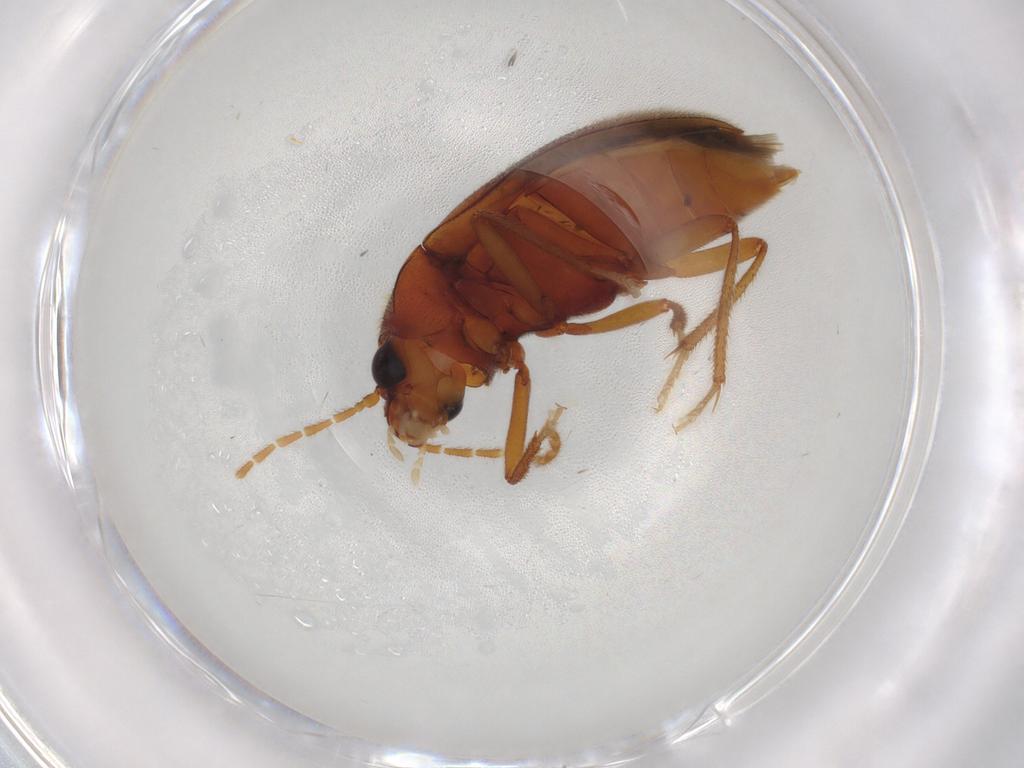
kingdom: Animalia
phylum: Arthropoda
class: Insecta
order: Coleoptera
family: Ptilodactylidae
